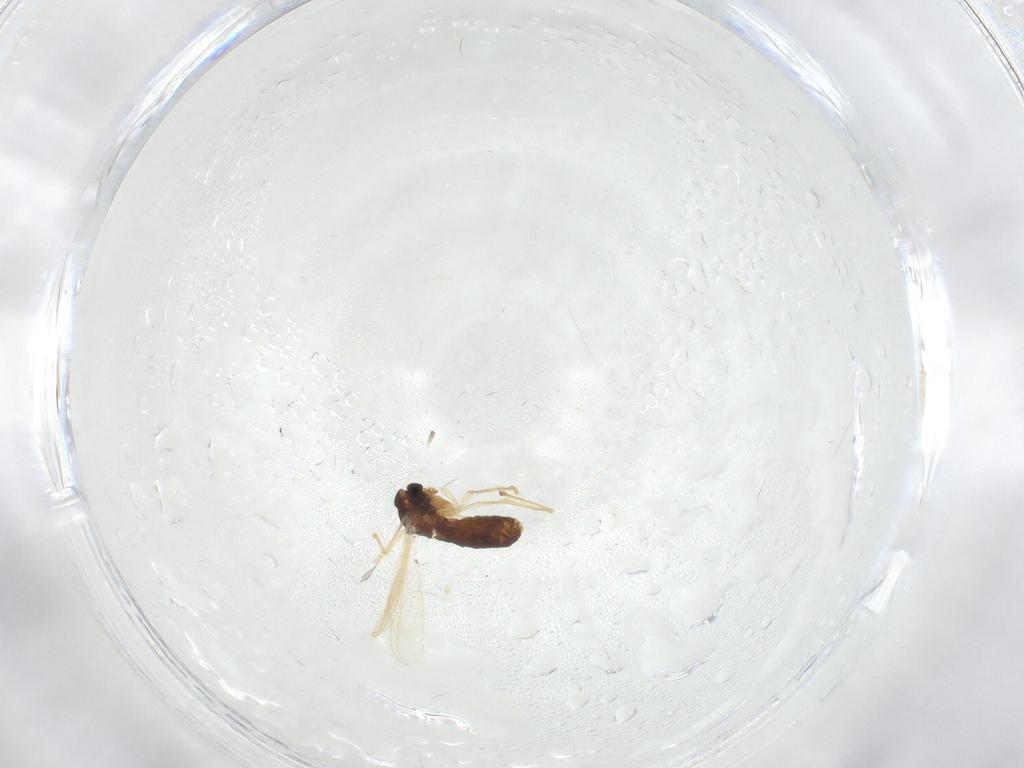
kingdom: Animalia
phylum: Arthropoda
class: Insecta
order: Diptera
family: Chironomidae
